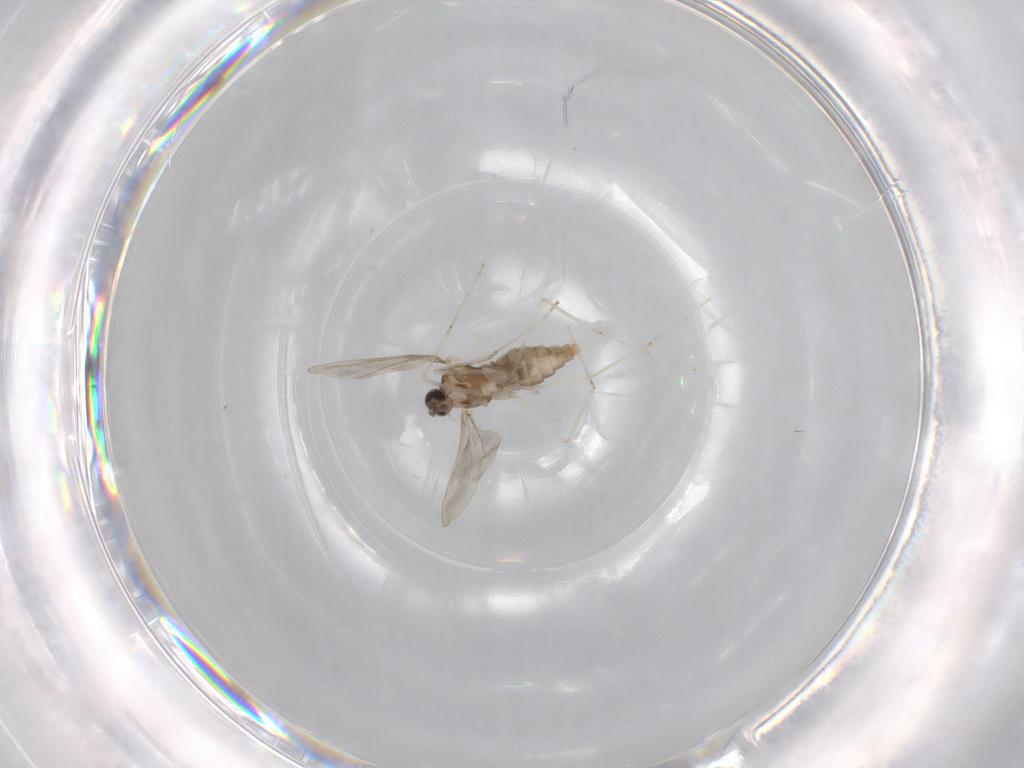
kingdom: Animalia
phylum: Arthropoda
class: Insecta
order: Diptera
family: Cecidomyiidae
